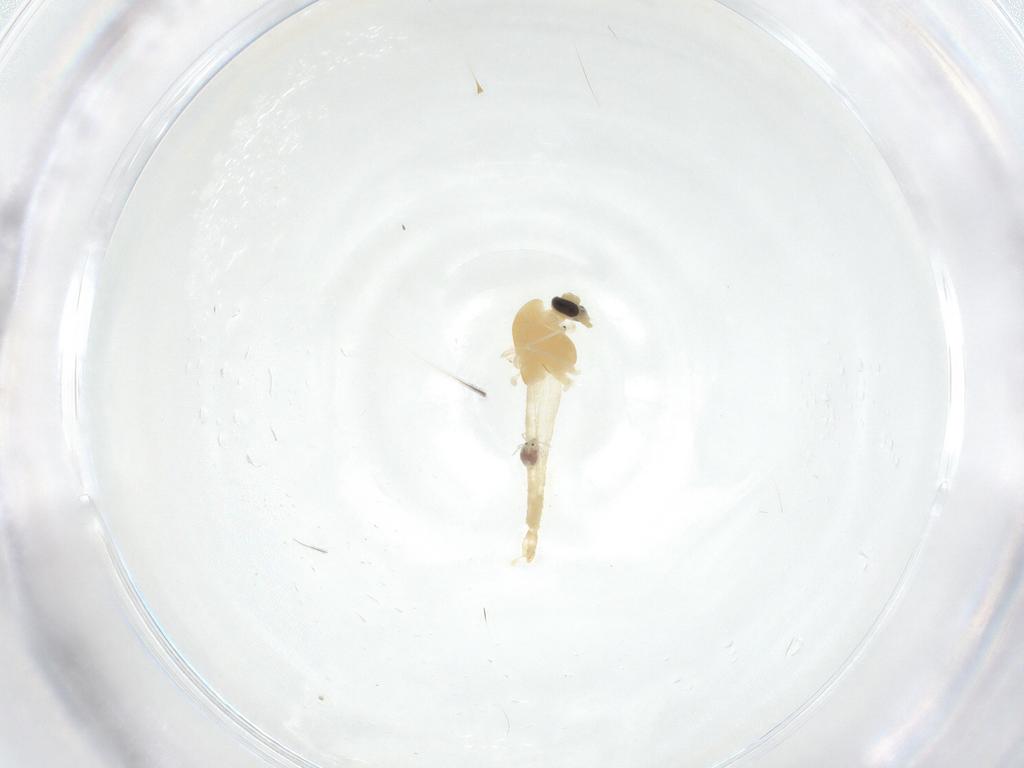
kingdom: Animalia
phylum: Arthropoda
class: Insecta
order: Diptera
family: Chironomidae
